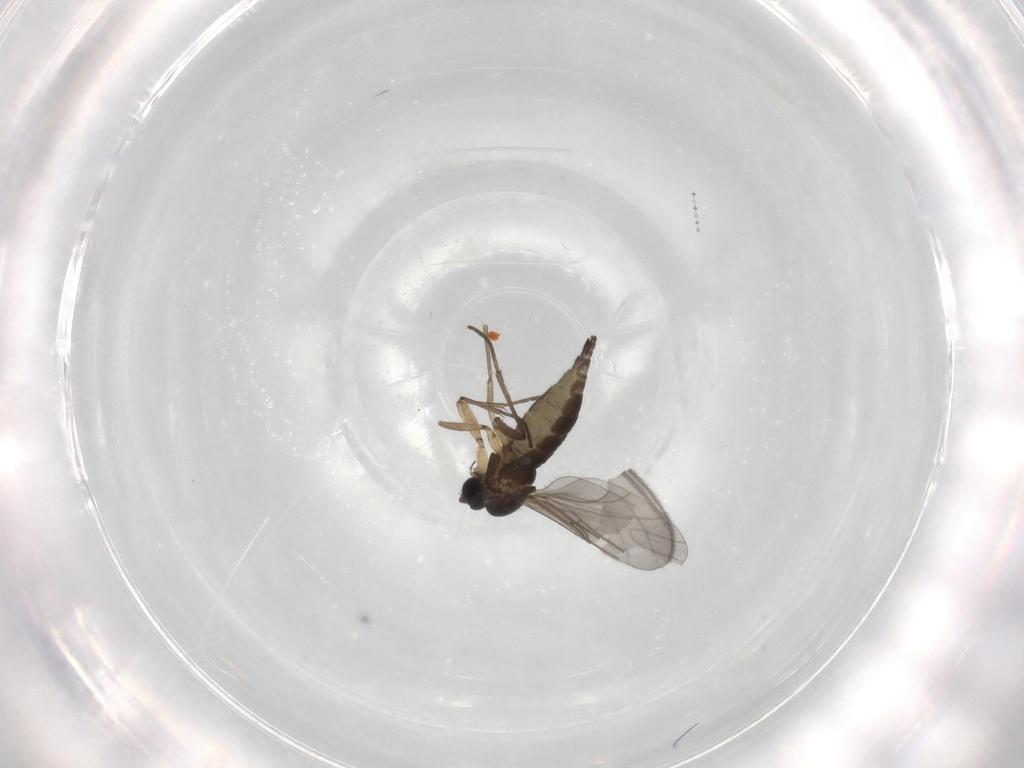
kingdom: Animalia
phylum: Arthropoda
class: Insecta
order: Diptera
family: Sciaridae
